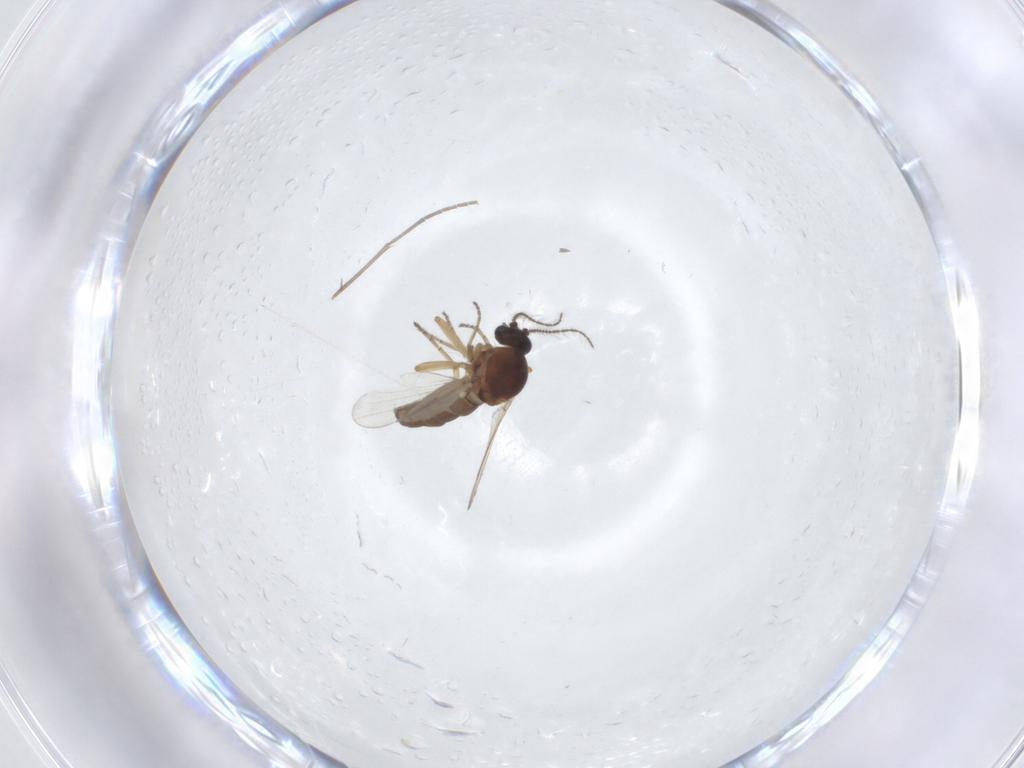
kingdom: Animalia
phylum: Arthropoda
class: Insecta
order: Diptera
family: Ceratopogonidae
